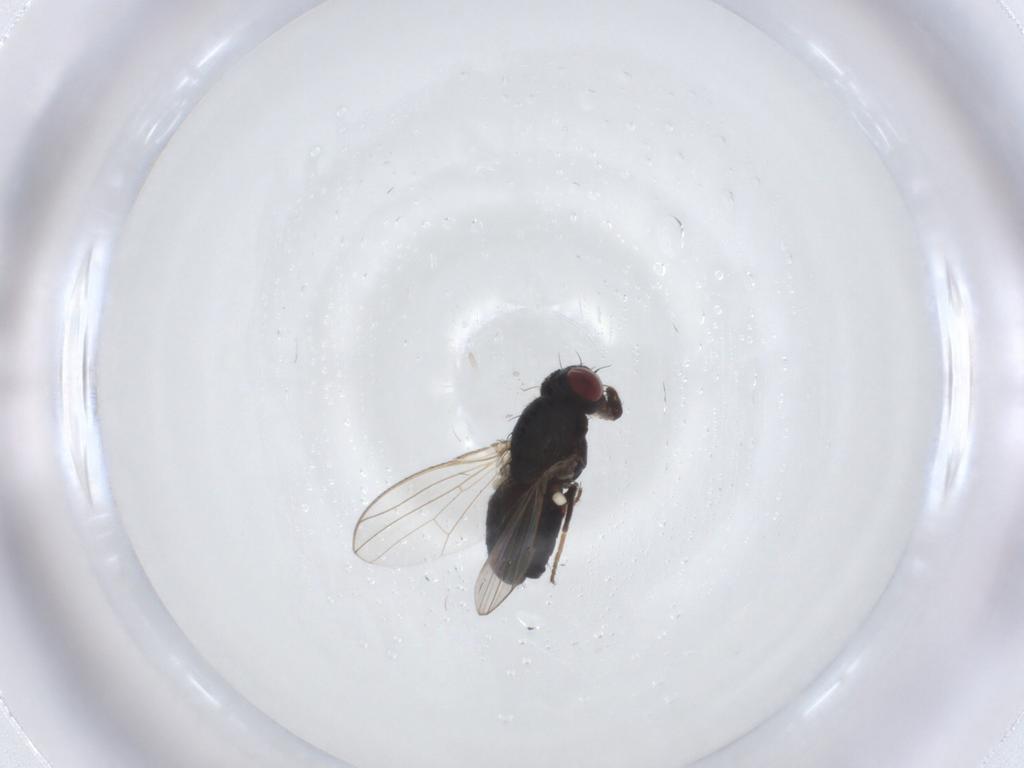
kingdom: Animalia
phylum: Arthropoda
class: Insecta
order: Diptera
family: Carnidae
